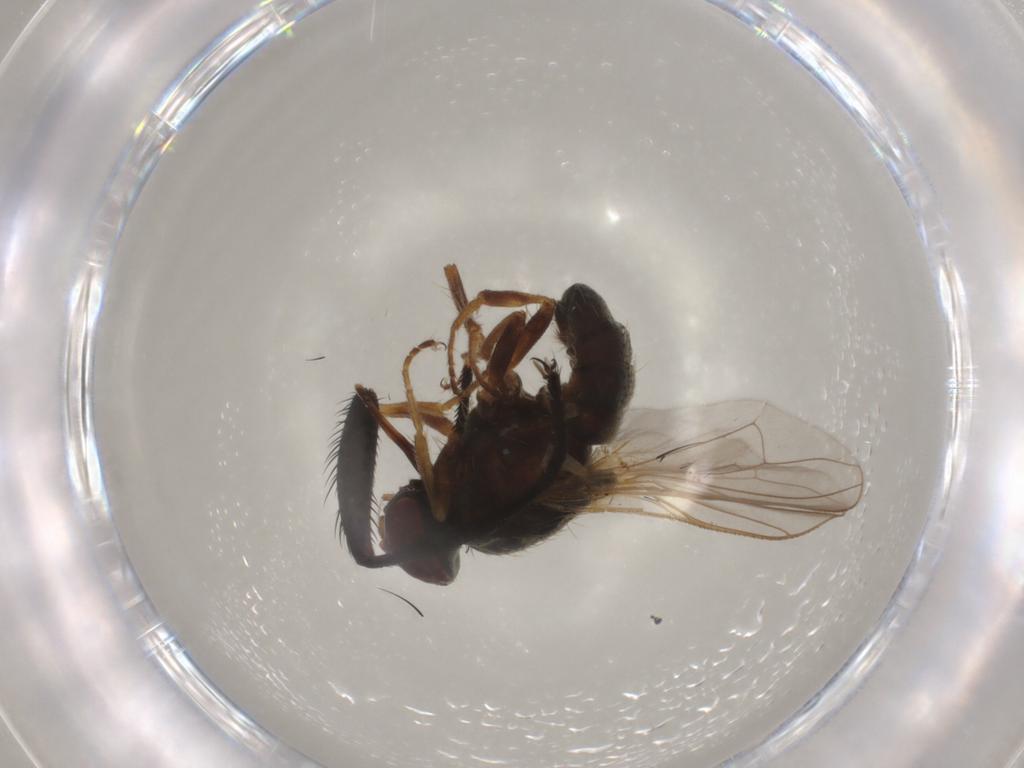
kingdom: Animalia
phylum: Arthropoda
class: Insecta
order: Diptera
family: Muscidae
